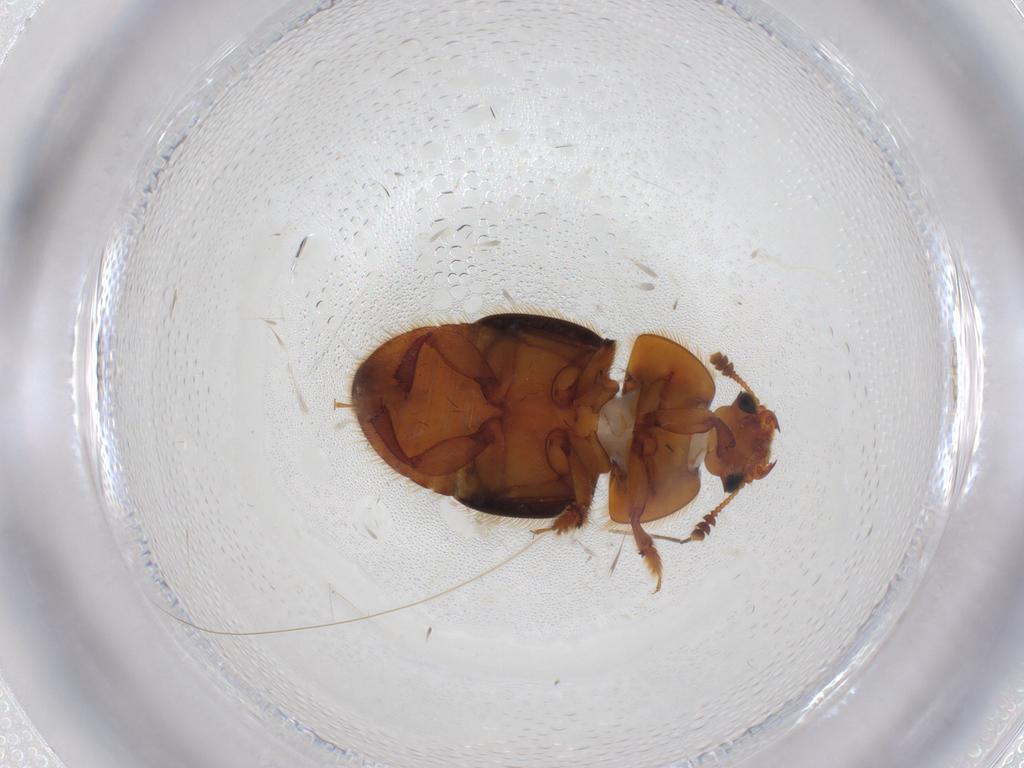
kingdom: Animalia
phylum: Arthropoda
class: Insecta
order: Coleoptera
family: Nitidulidae
